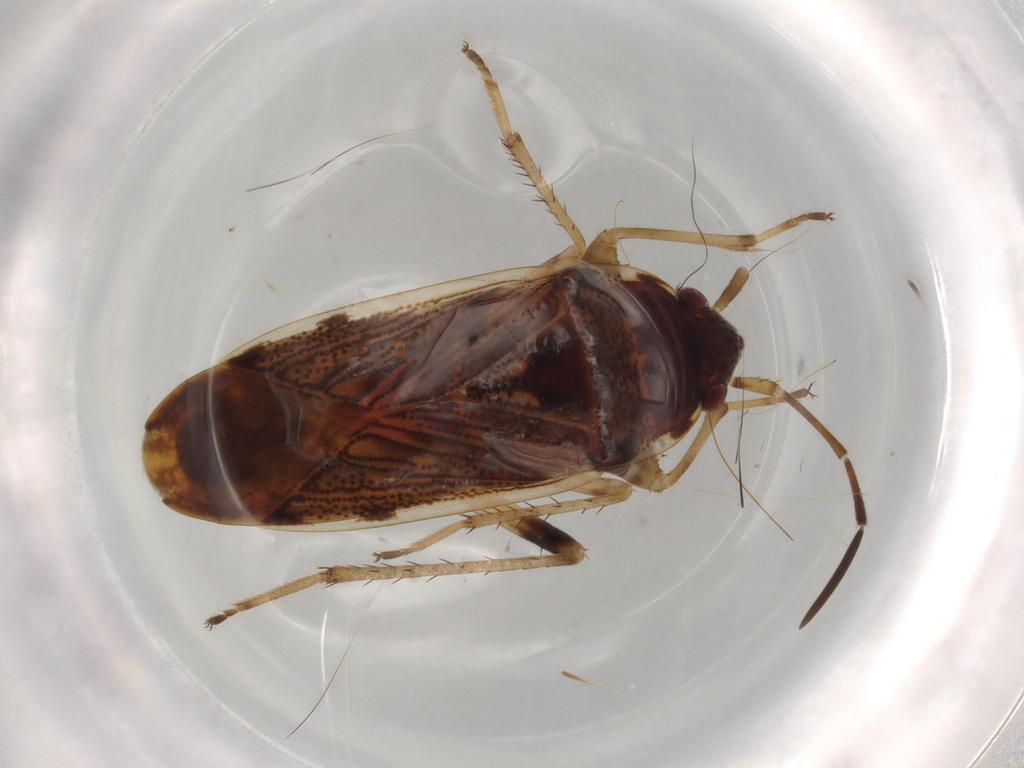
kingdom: Animalia
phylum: Arthropoda
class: Insecta
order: Hemiptera
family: Rhyparochromidae
